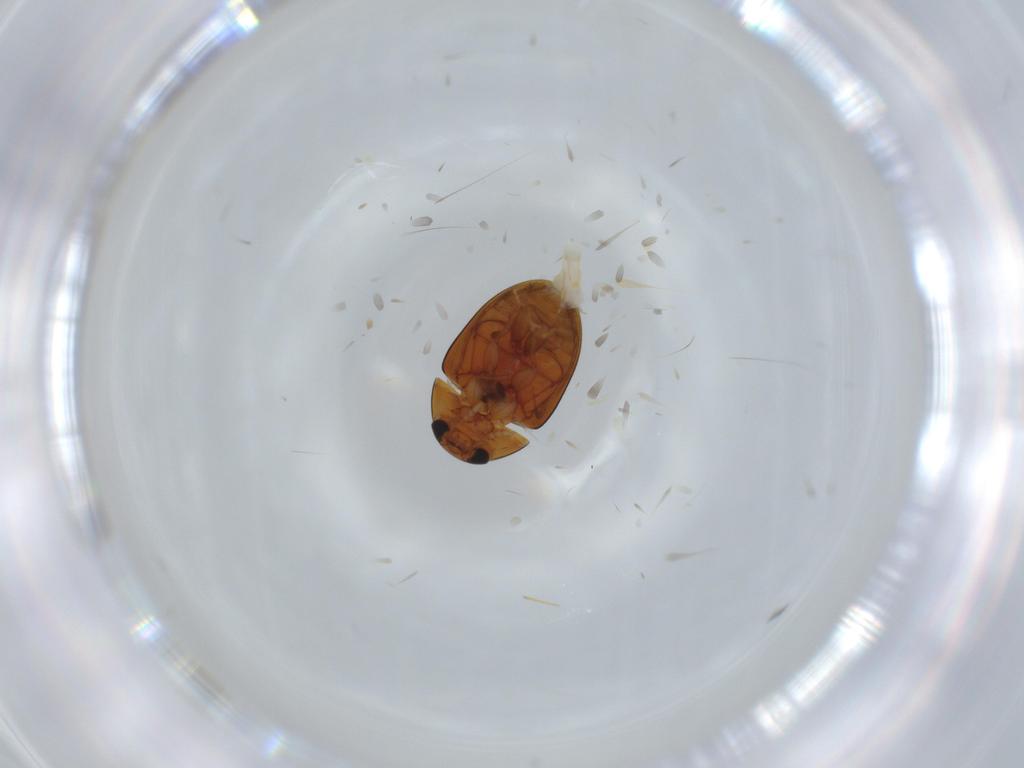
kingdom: Animalia
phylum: Arthropoda
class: Insecta
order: Coleoptera
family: Phalacridae
